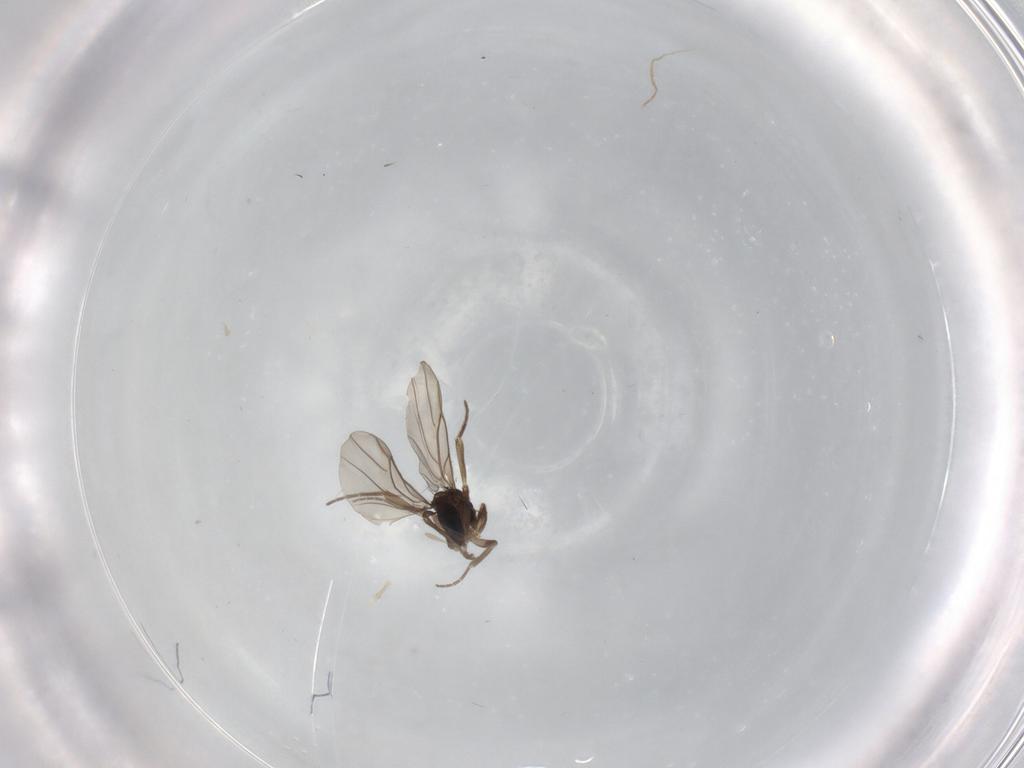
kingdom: Animalia
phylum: Arthropoda
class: Insecta
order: Diptera
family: Phoridae
